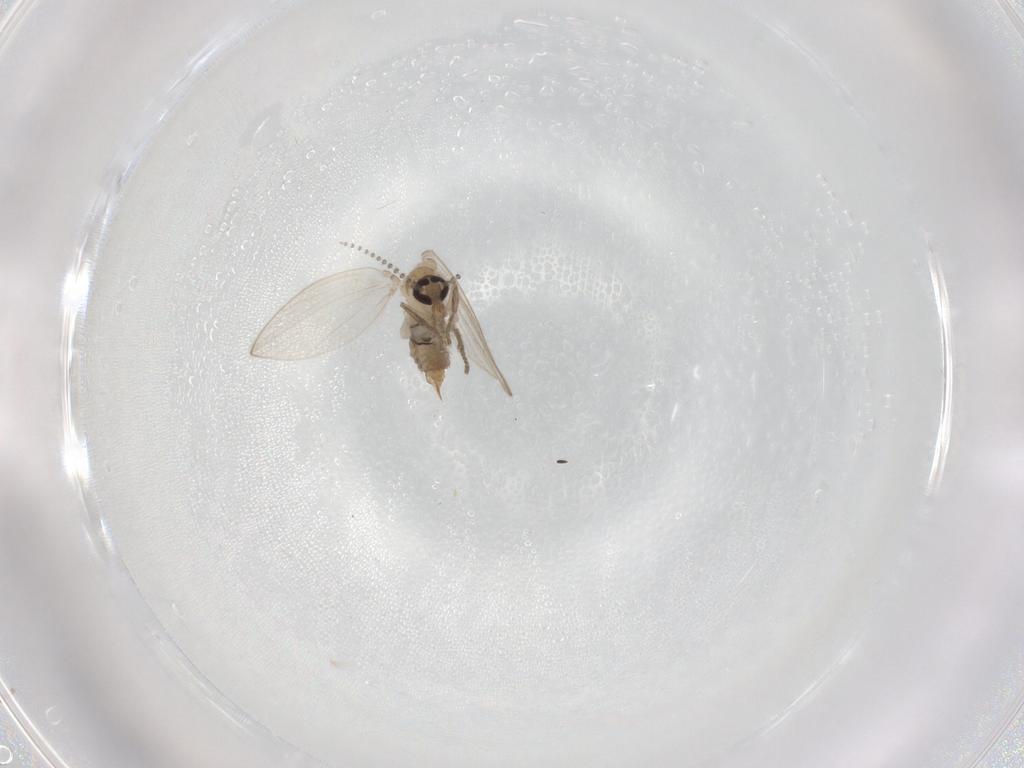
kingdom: Animalia
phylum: Arthropoda
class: Insecta
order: Diptera
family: Psychodidae
